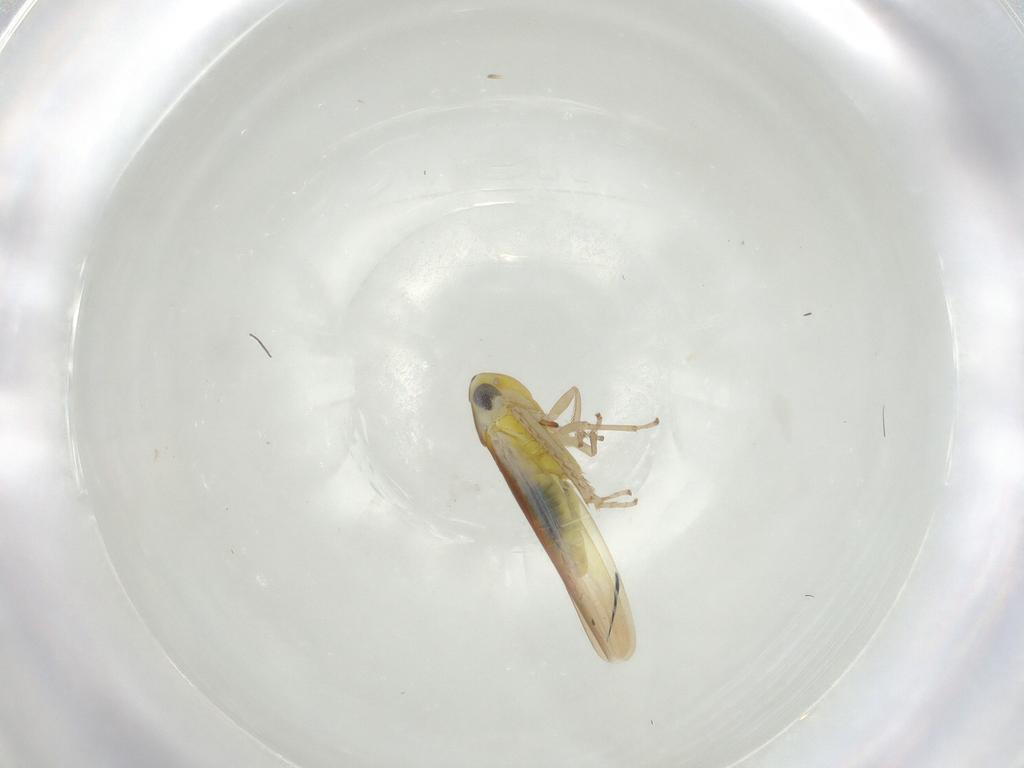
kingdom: Animalia
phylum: Arthropoda
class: Insecta
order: Hemiptera
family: Cicadellidae
